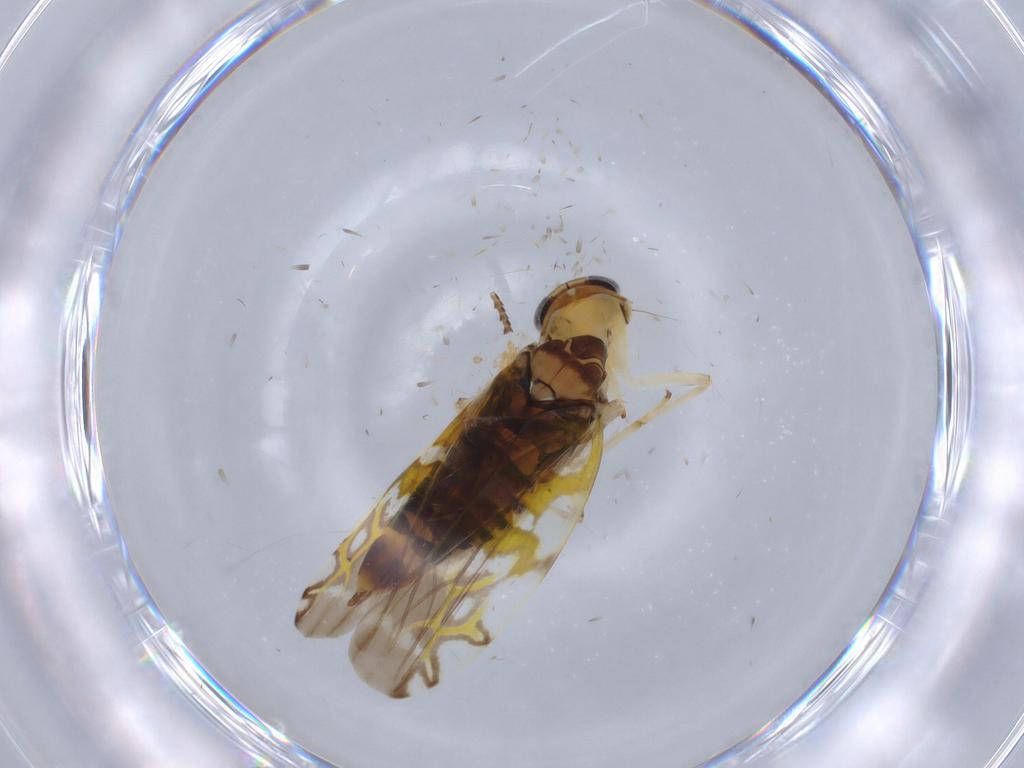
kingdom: Animalia
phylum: Arthropoda
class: Insecta
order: Hemiptera
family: Cicadellidae
